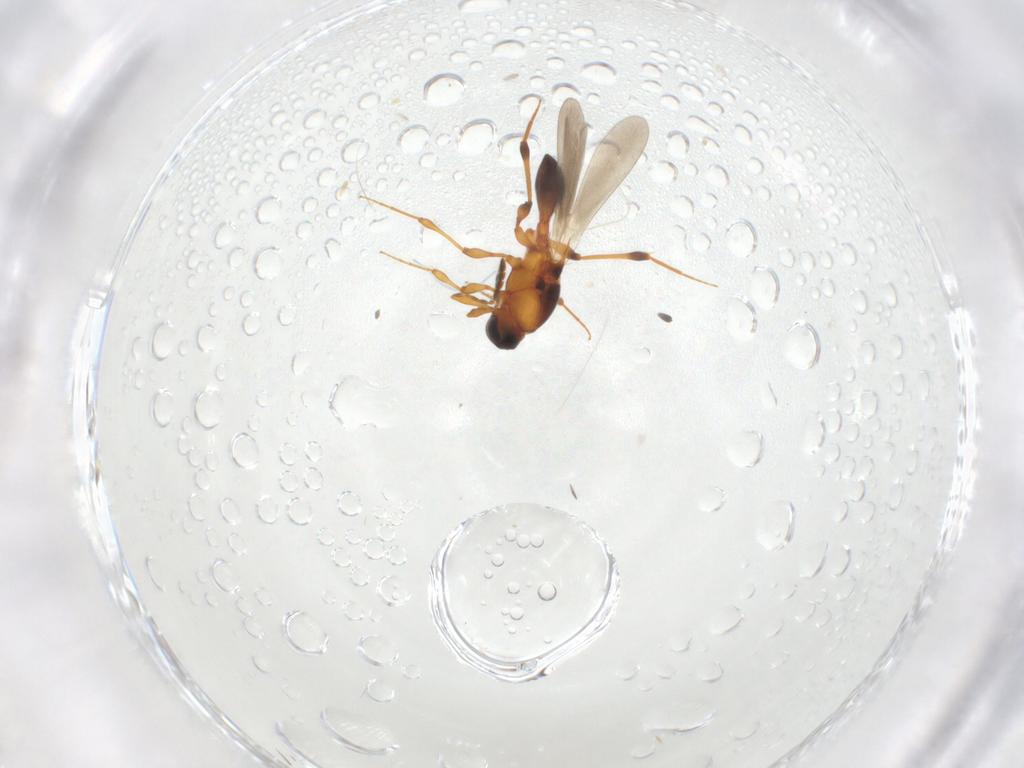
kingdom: Animalia
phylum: Arthropoda
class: Insecta
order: Hymenoptera
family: Platygastridae
